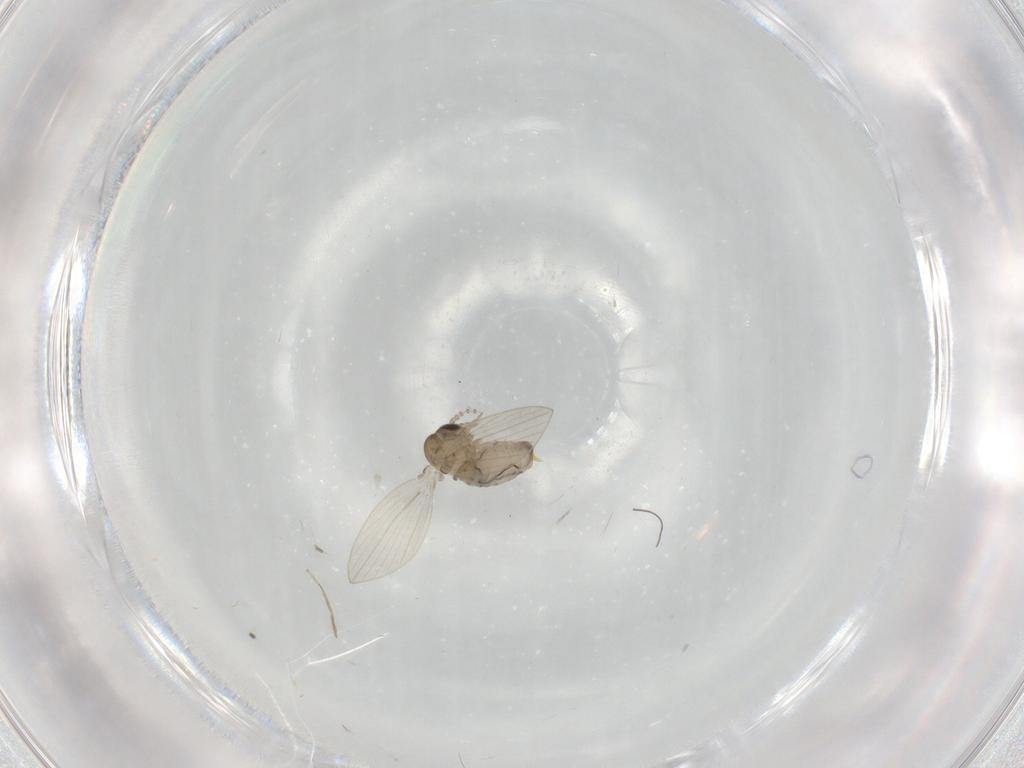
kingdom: Animalia
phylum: Arthropoda
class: Insecta
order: Diptera
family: Psychodidae
